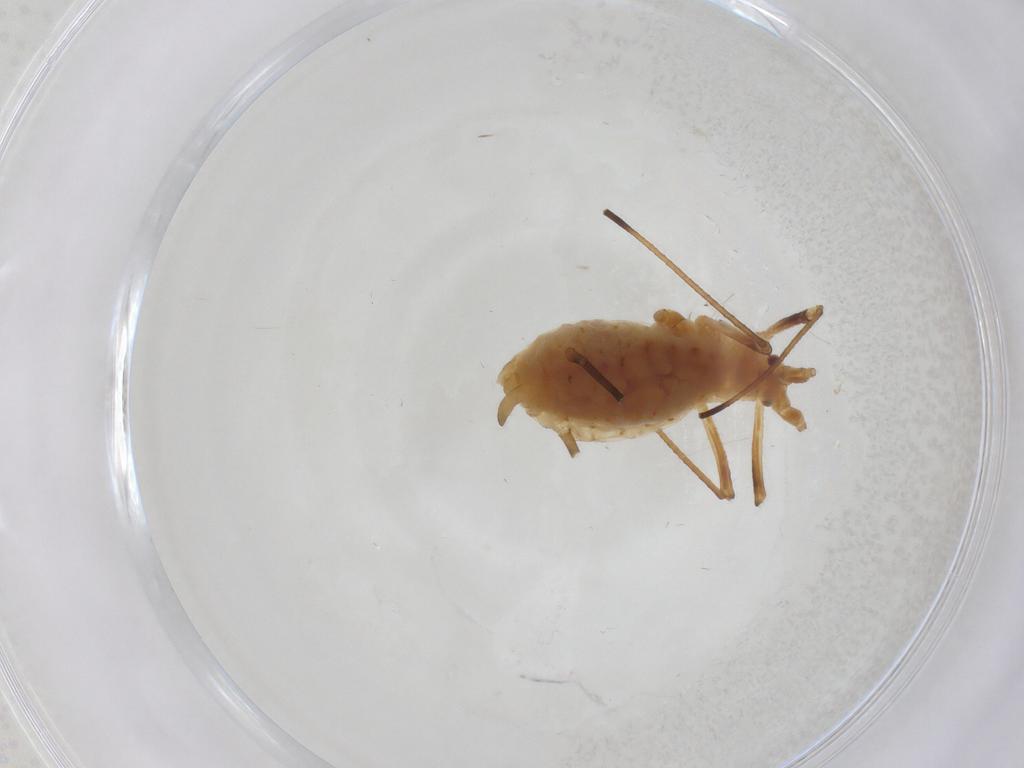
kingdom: Animalia
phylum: Arthropoda
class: Insecta
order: Hemiptera
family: Aphididae
